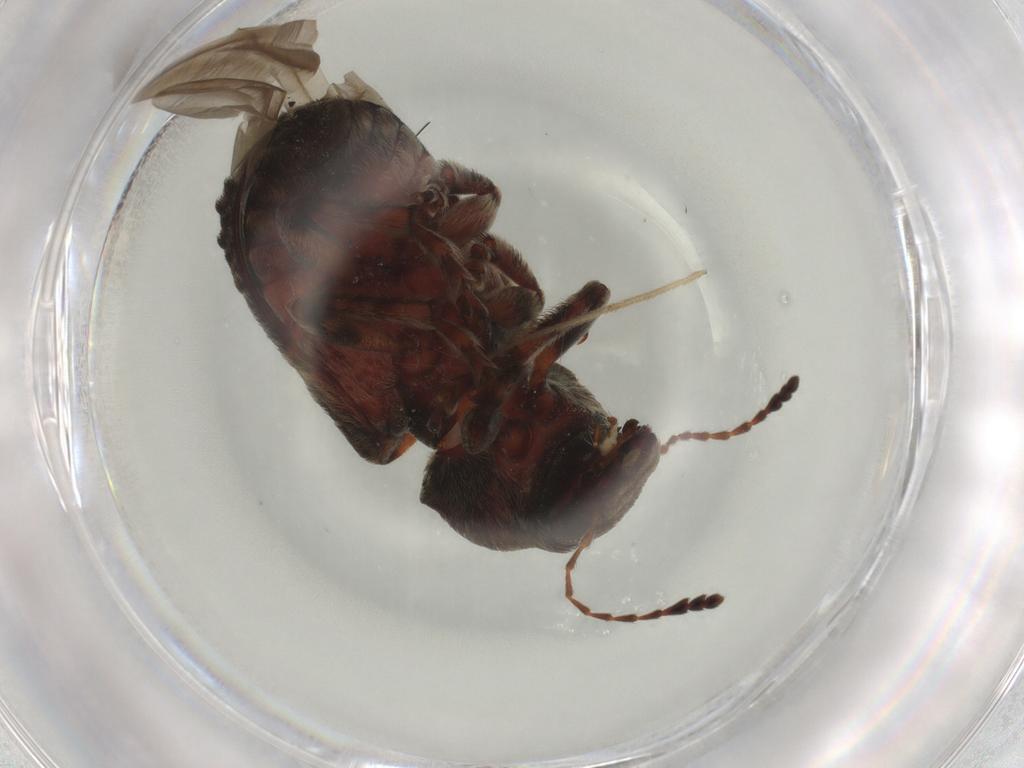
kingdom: Animalia
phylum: Arthropoda
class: Insecta
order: Coleoptera
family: Anthribidae
